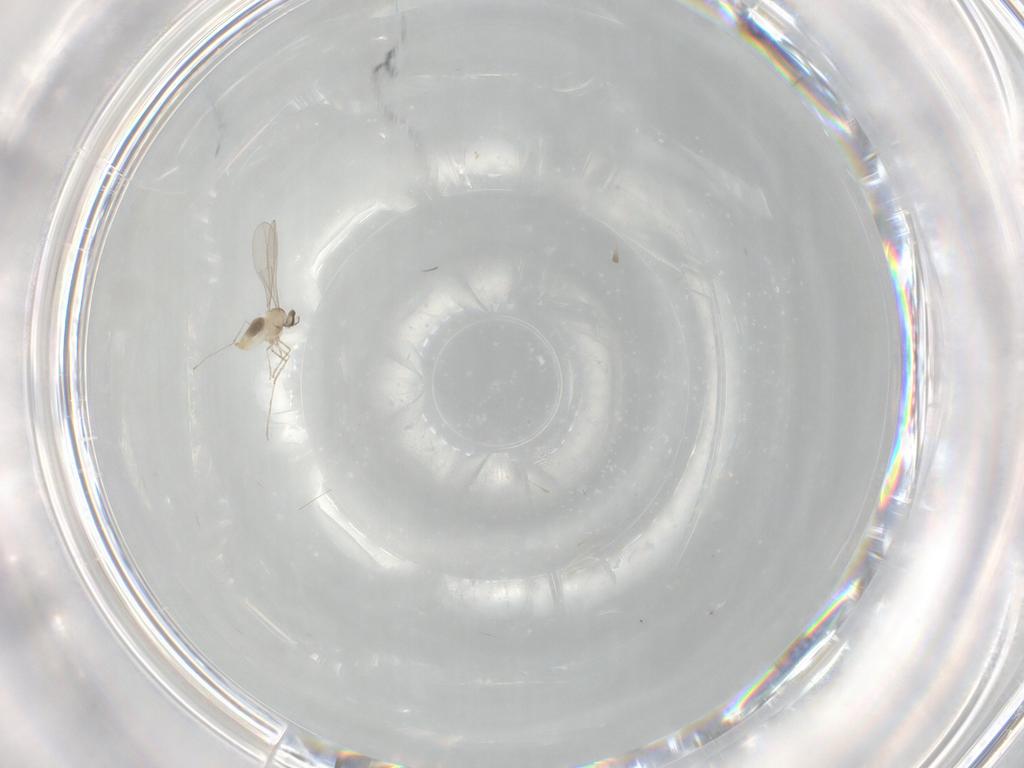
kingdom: Animalia
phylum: Arthropoda
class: Insecta
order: Diptera
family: Cecidomyiidae
